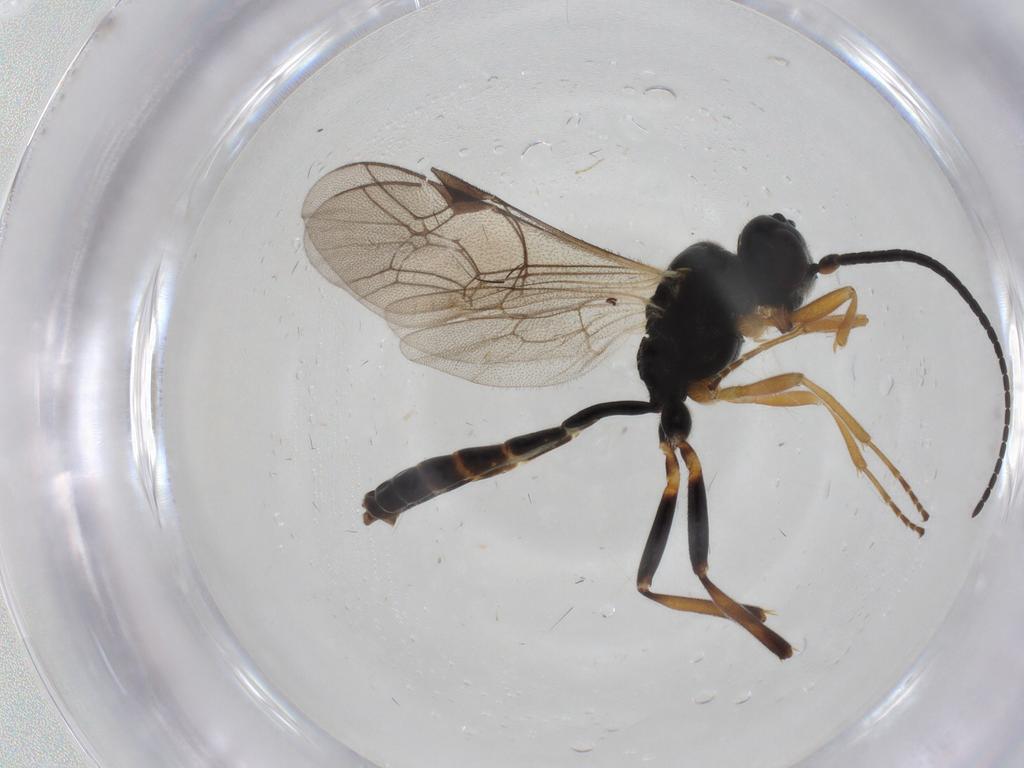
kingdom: Animalia
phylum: Arthropoda
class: Insecta
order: Hymenoptera
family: Ichneumonidae
